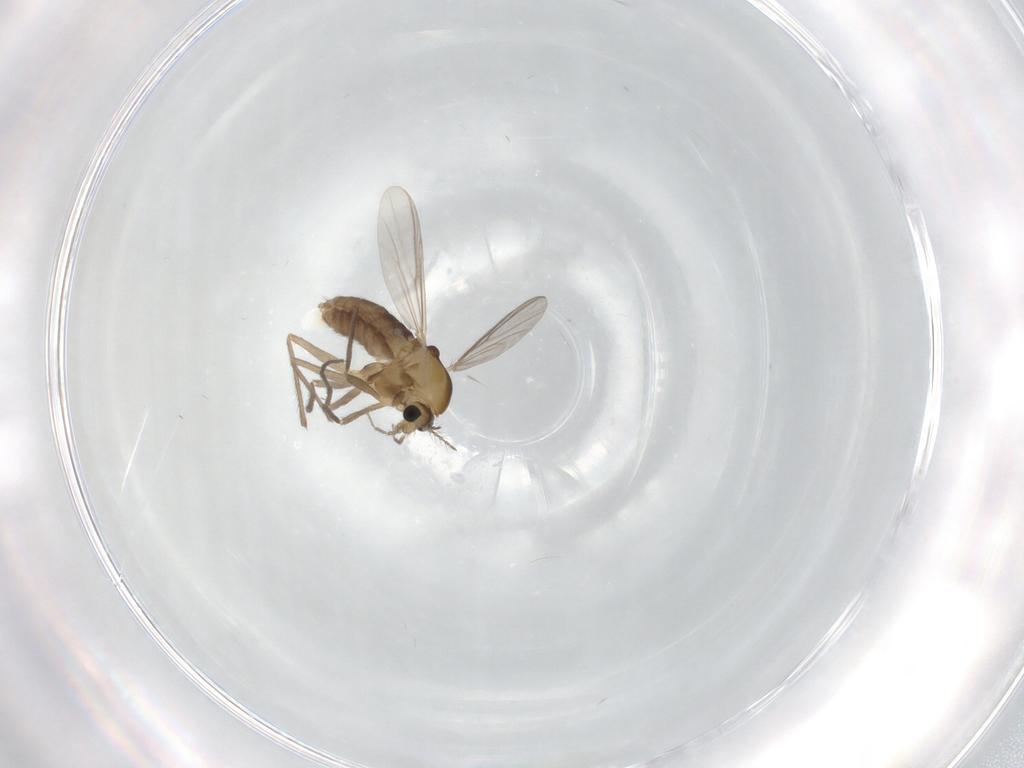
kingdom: Animalia
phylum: Arthropoda
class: Insecta
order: Diptera
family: Chironomidae
